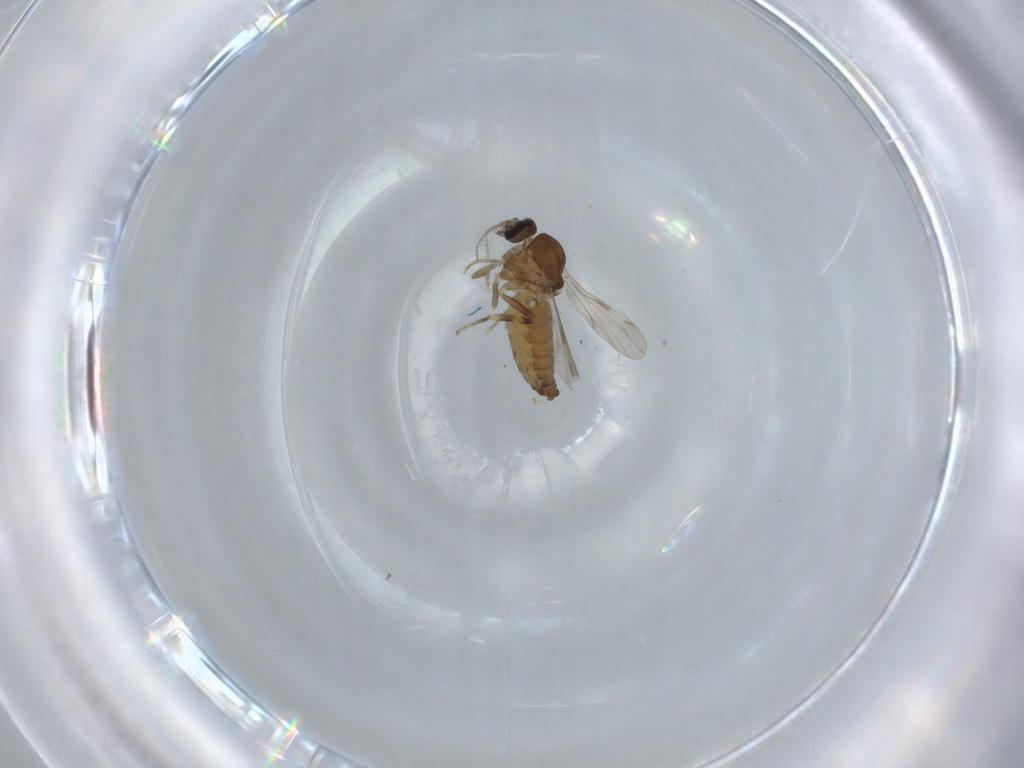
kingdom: Animalia
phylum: Arthropoda
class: Insecta
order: Diptera
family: Ceratopogonidae
